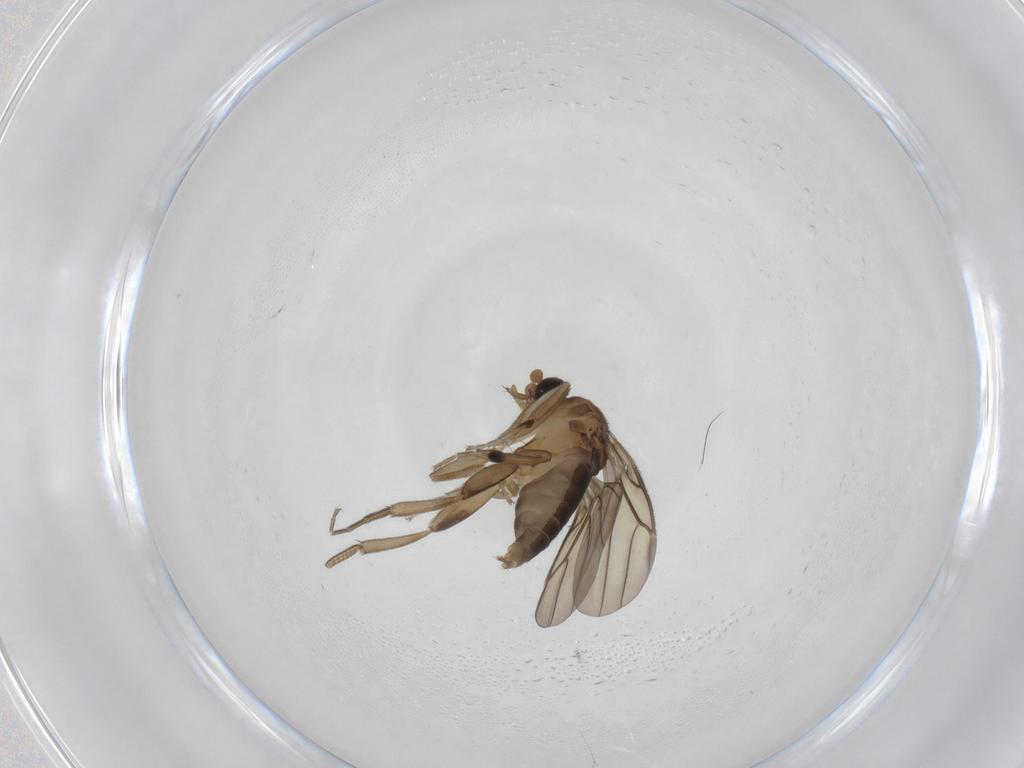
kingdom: Animalia
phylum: Arthropoda
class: Insecta
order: Diptera
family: Phoridae
